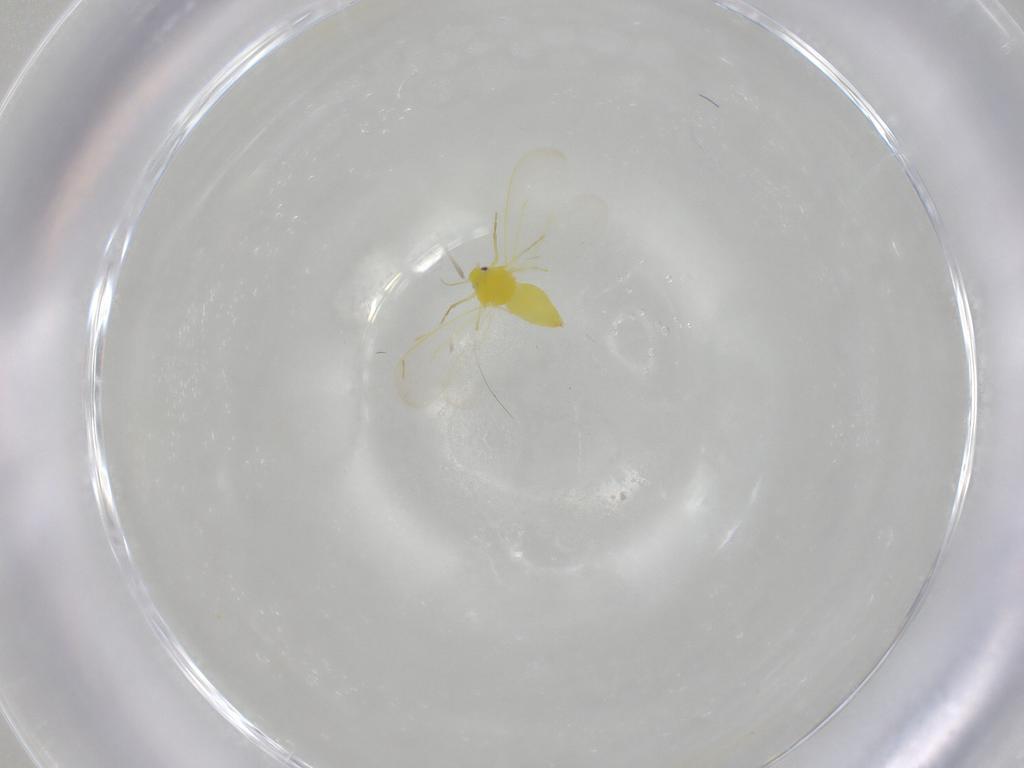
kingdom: Animalia
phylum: Arthropoda
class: Insecta
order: Hemiptera
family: Aleyrodidae
